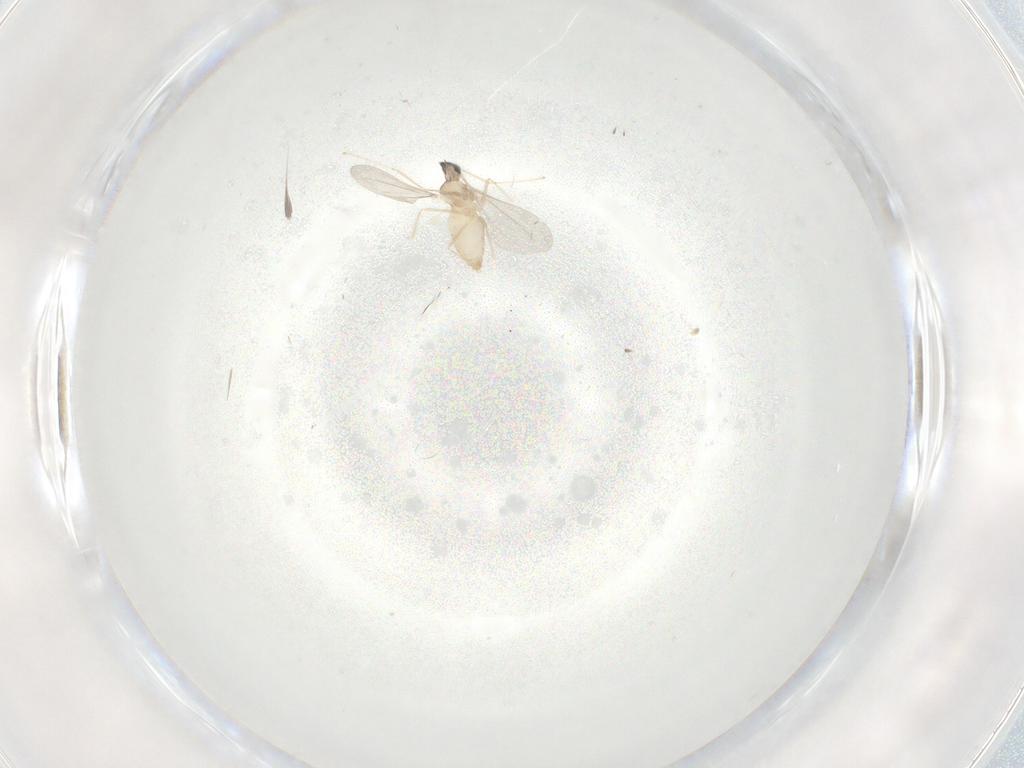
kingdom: Animalia
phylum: Arthropoda
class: Insecta
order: Diptera
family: Cecidomyiidae
